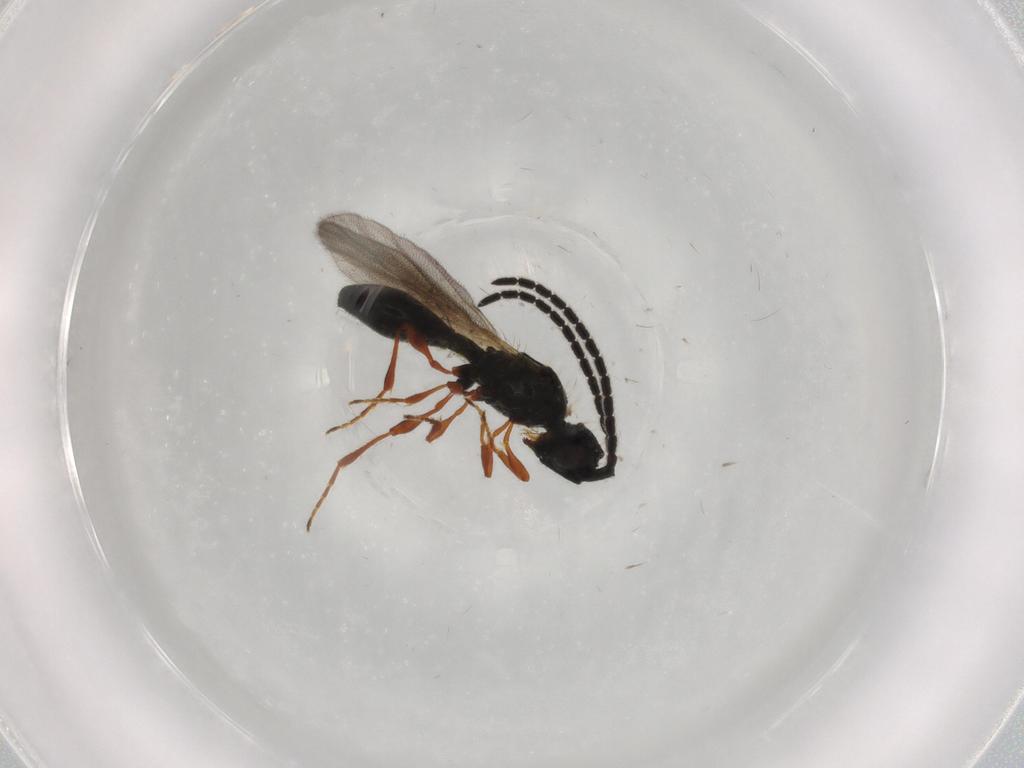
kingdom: Animalia
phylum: Arthropoda
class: Insecta
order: Hymenoptera
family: Diapriidae
